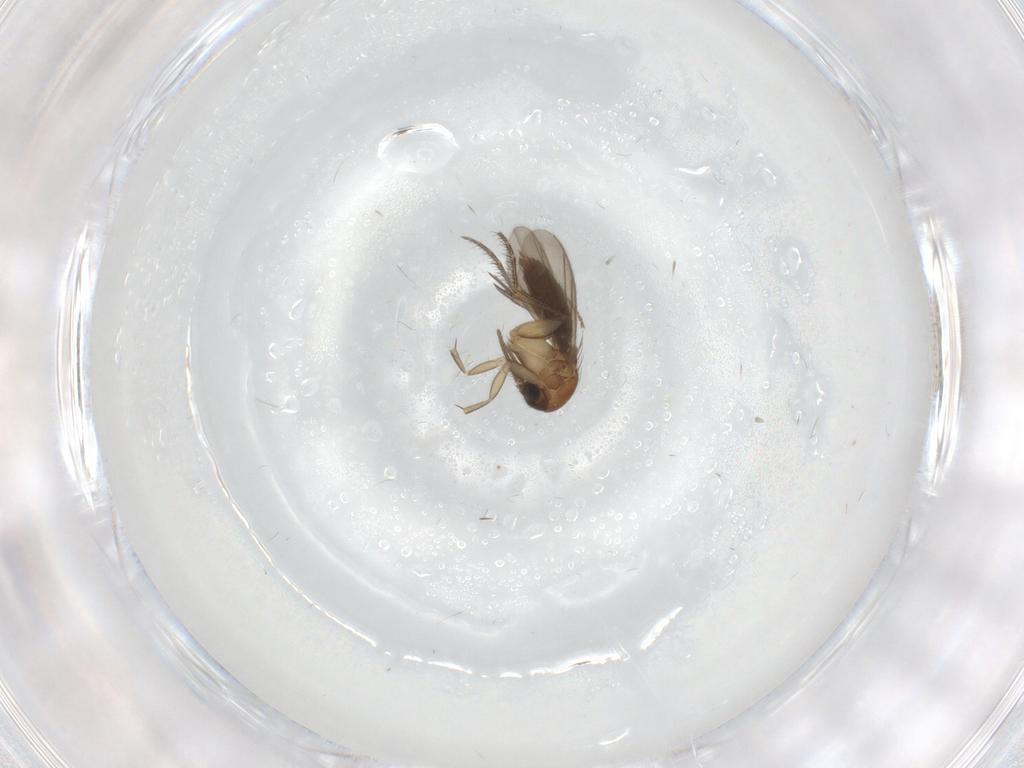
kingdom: Animalia
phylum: Arthropoda
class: Insecta
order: Diptera
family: Mycetophilidae
